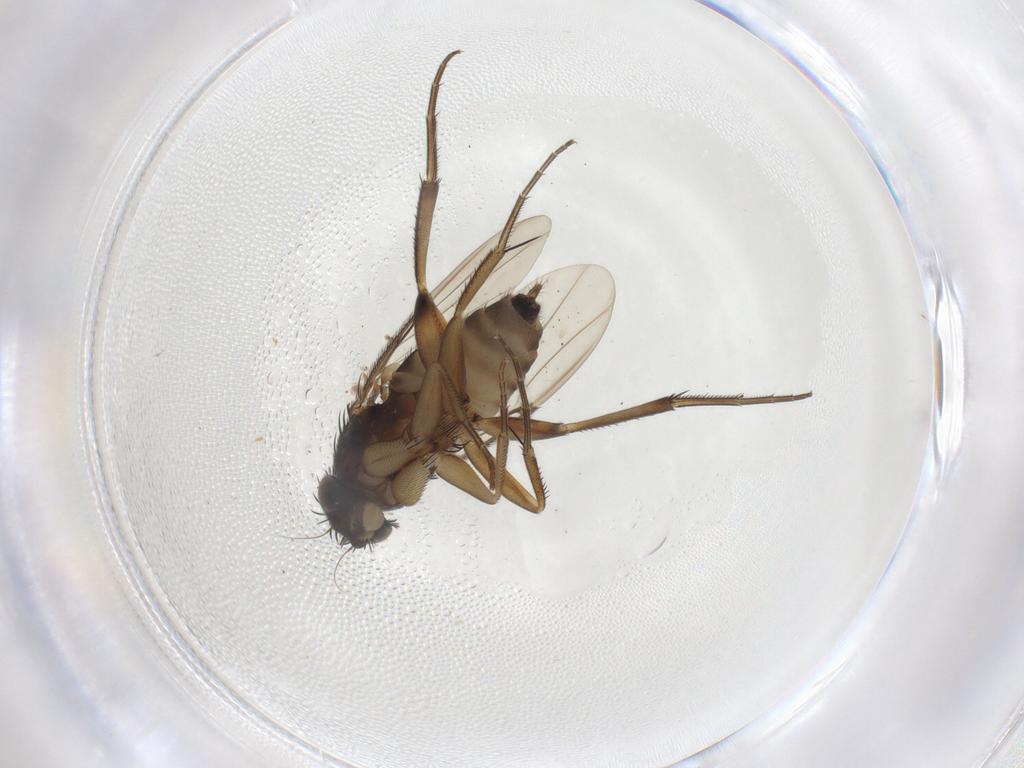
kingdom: Animalia
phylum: Arthropoda
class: Insecta
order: Diptera
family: Phoridae
